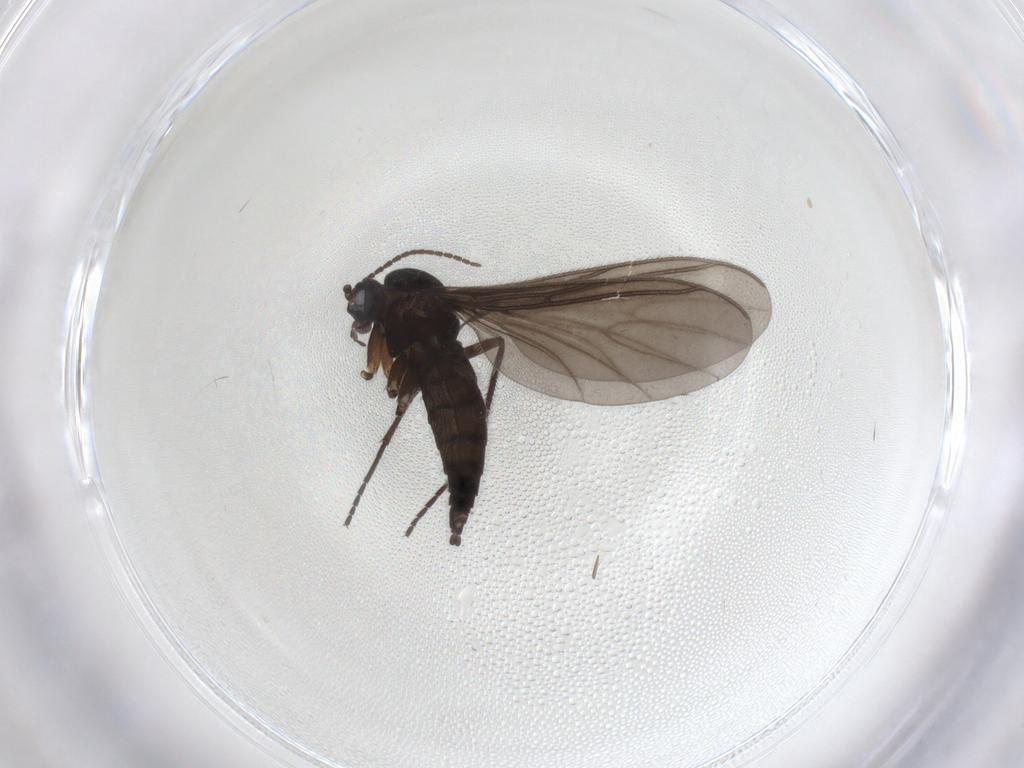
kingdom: Animalia
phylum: Arthropoda
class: Insecta
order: Diptera
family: Sciaridae
